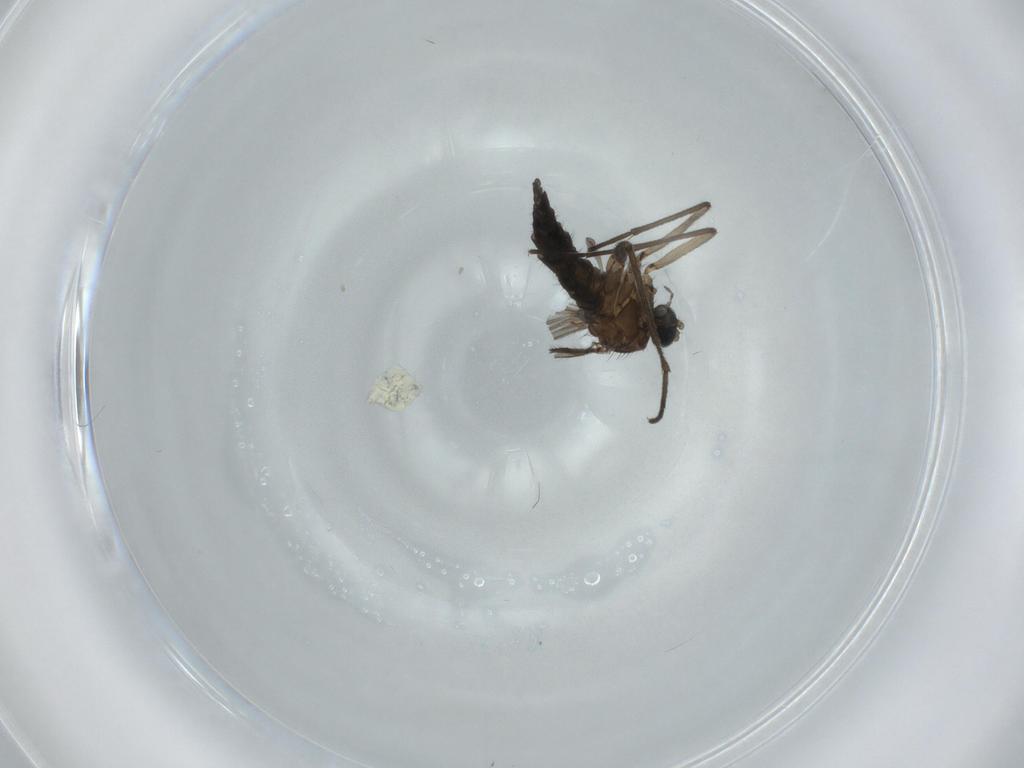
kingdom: Animalia
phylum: Arthropoda
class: Insecta
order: Diptera
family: Sciaridae
